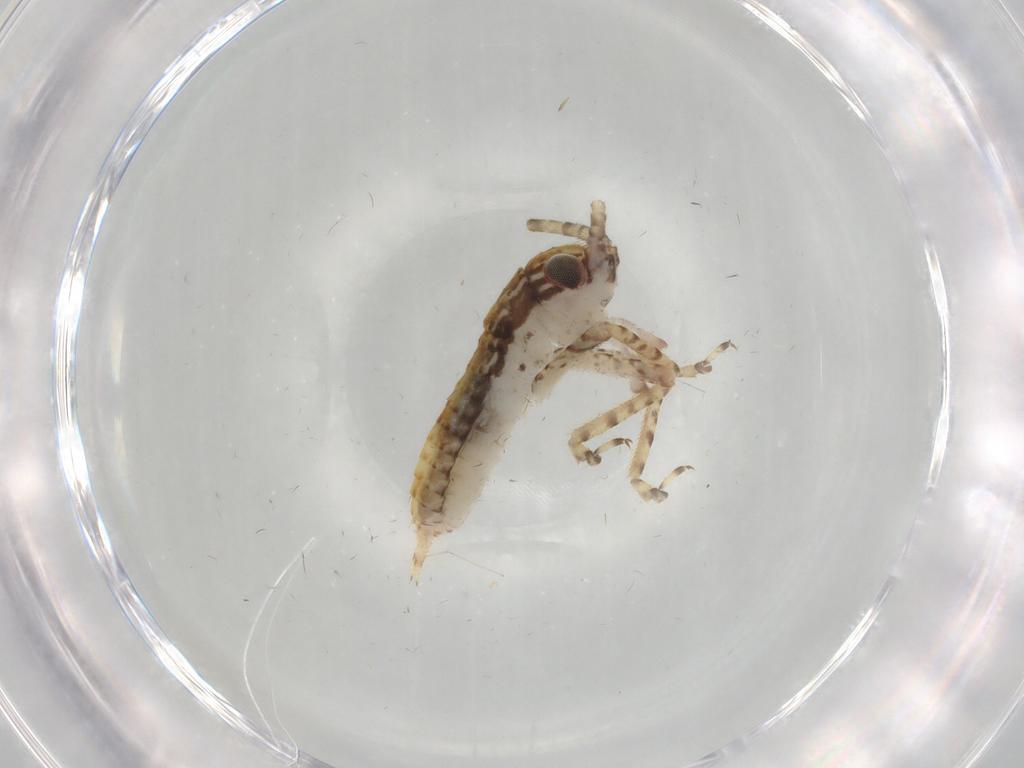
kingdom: Animalia
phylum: Arthropoda
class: Insecta
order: Orthoptera
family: Gryllidae
